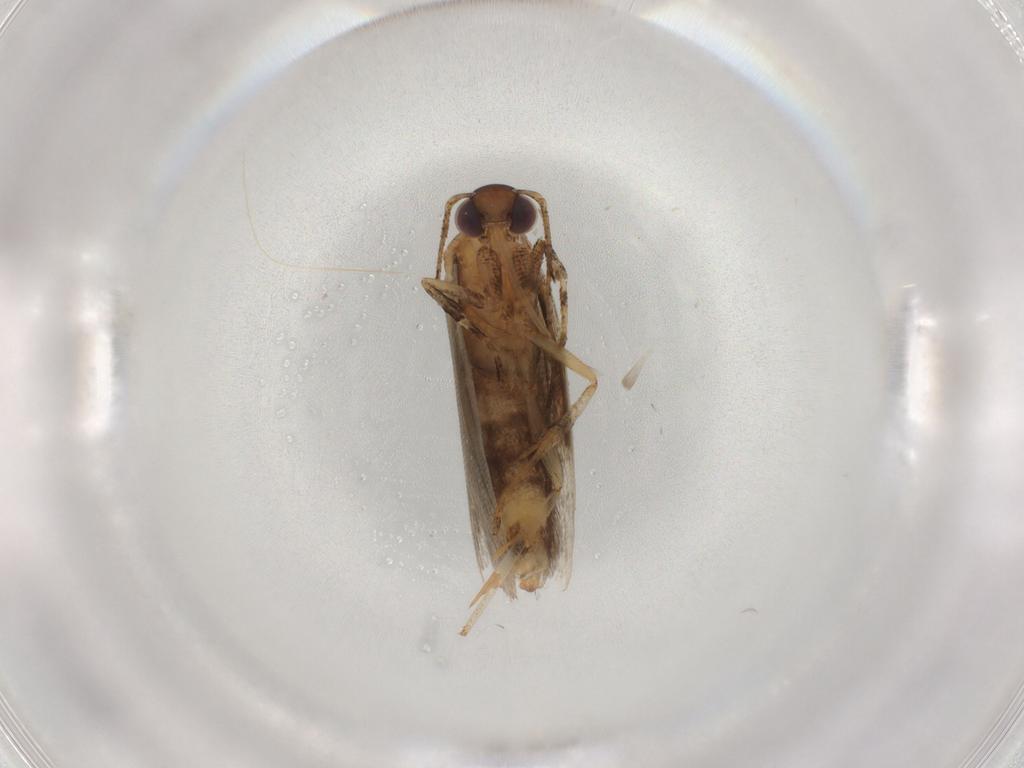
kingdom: Animalia
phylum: Arthropoda
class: Insecta
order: Lepidoptera
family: Gelechiidae
